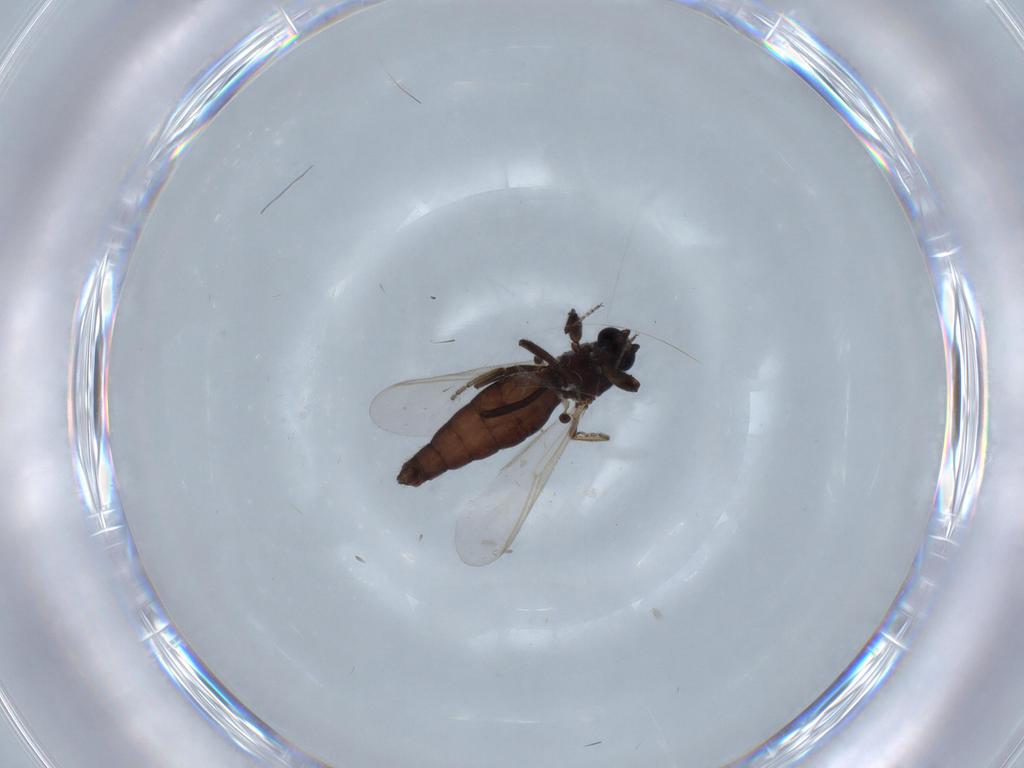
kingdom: Animalia
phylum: Arthropoda
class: Insecta
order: Diptera
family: Ceratopogonidae
